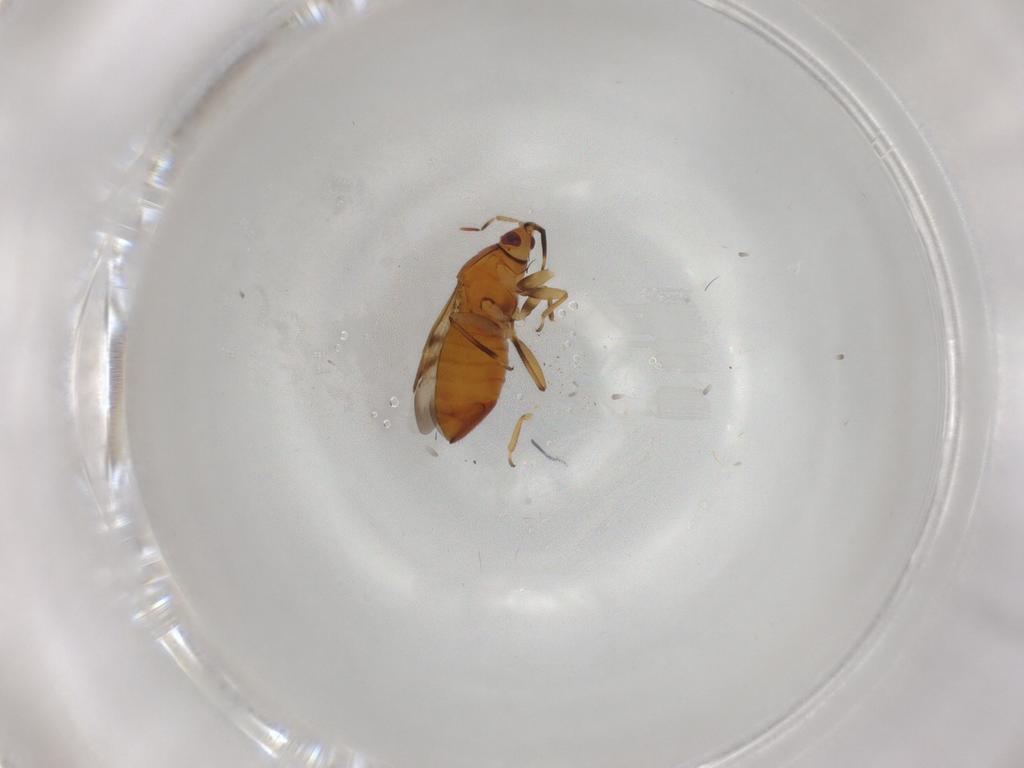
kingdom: Animalia
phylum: Arthropoda
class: Insecta
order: Hemiptera
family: Anthocoridae
